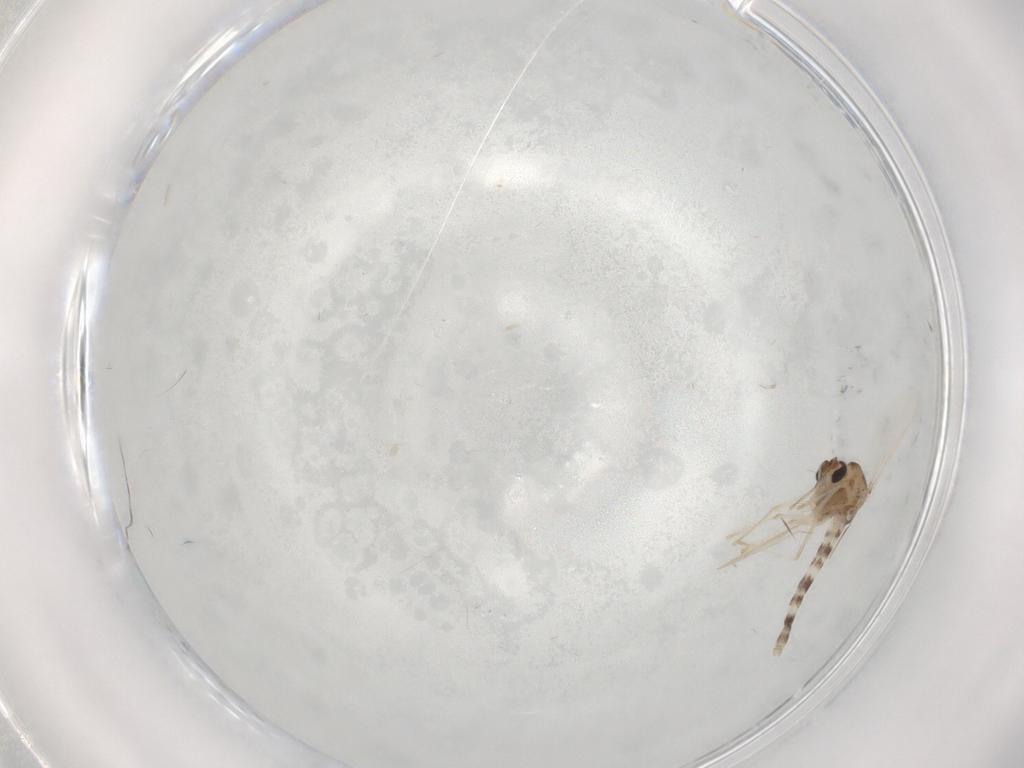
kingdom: Animalia
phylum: Arthropoda
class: Insecta
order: Diptera
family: Chironomidae
